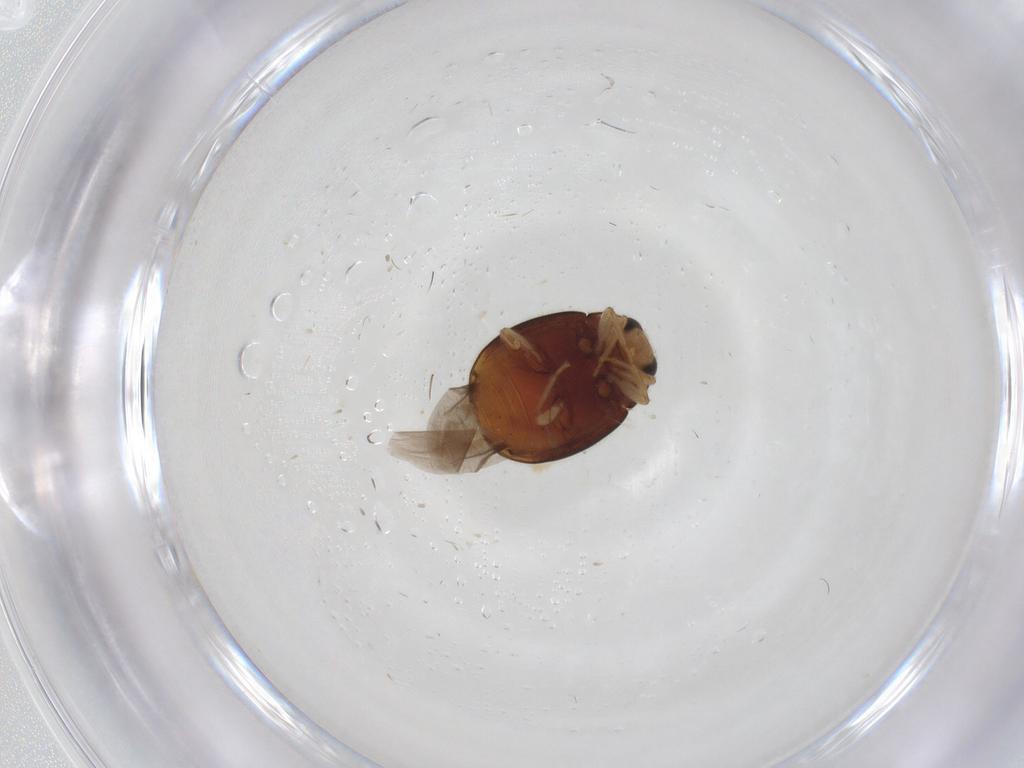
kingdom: Animalia
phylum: Arthropoda
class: Insecta
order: Coleoptera
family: Coccinellidae
